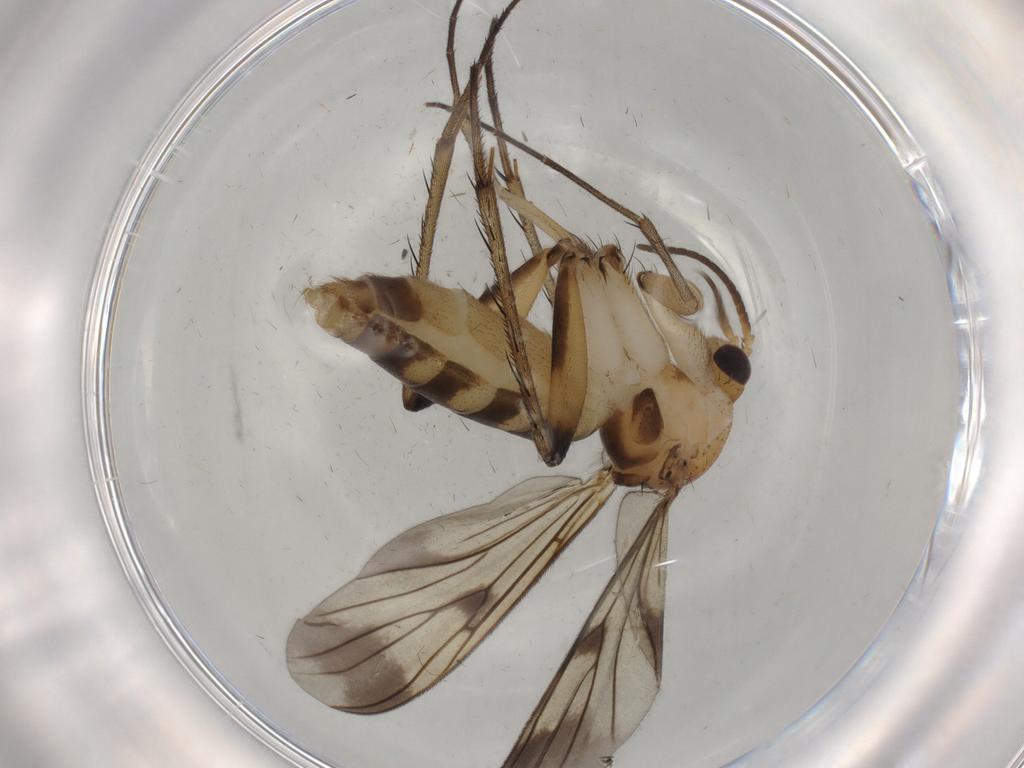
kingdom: Animalia
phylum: Arthropoda
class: Insecta
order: Diptera
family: Mycetophilidae
